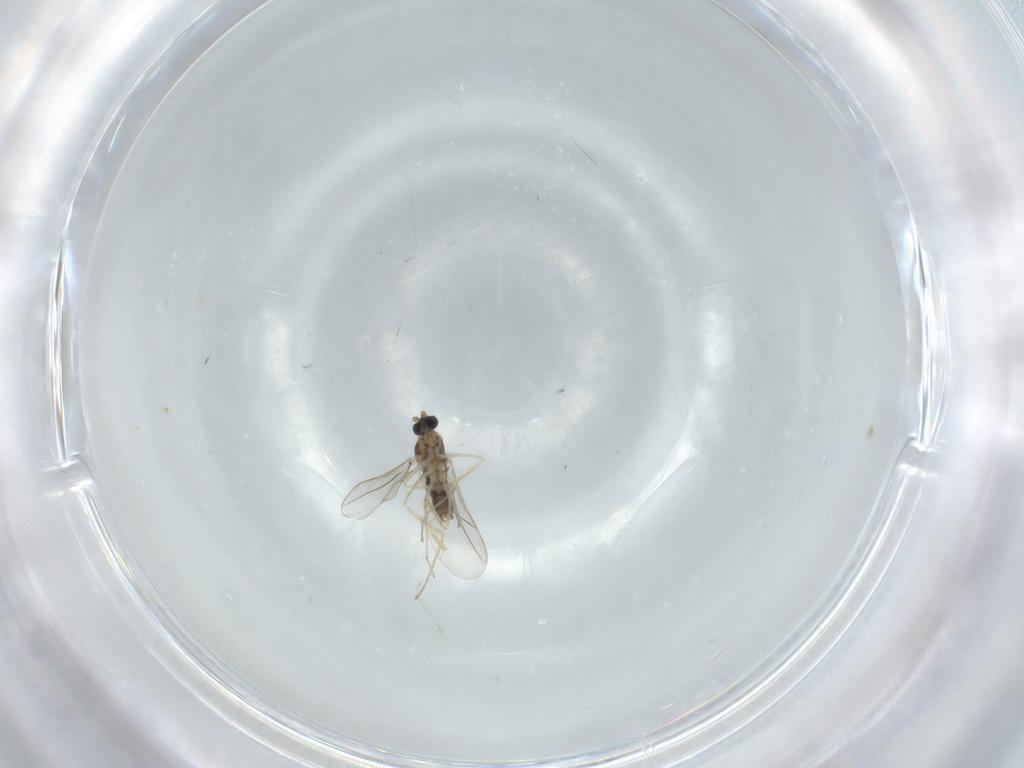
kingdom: Animalia
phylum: Arthropoda
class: Insecta
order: Diptera
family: Cecidomyiidae
